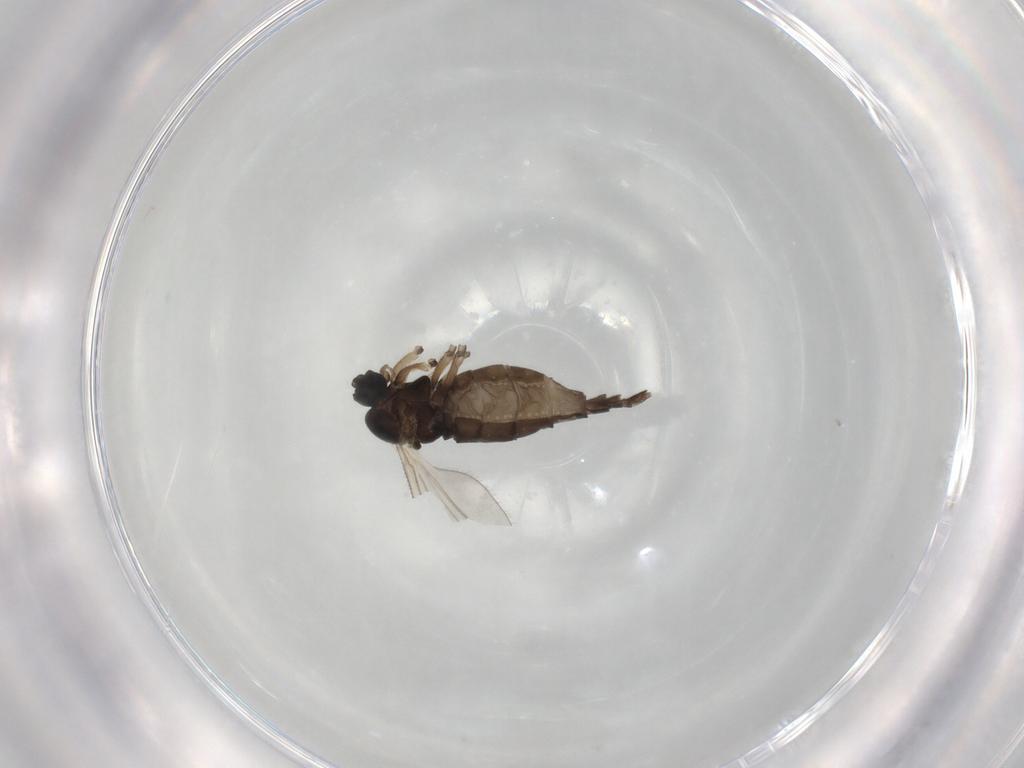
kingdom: Animalia
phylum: Arthropoda
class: Insecta
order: Diptera
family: Sciaridae
